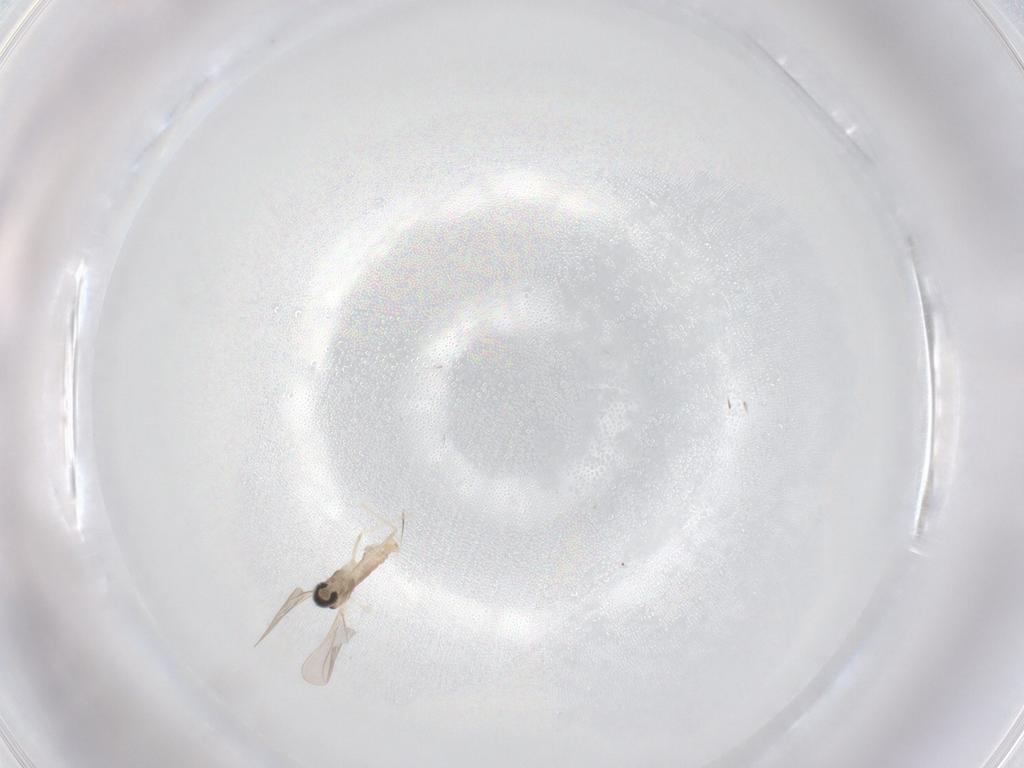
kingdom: Animalia
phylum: Arthropoda
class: Insecta
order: Diptera
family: Cecidomyiidae
